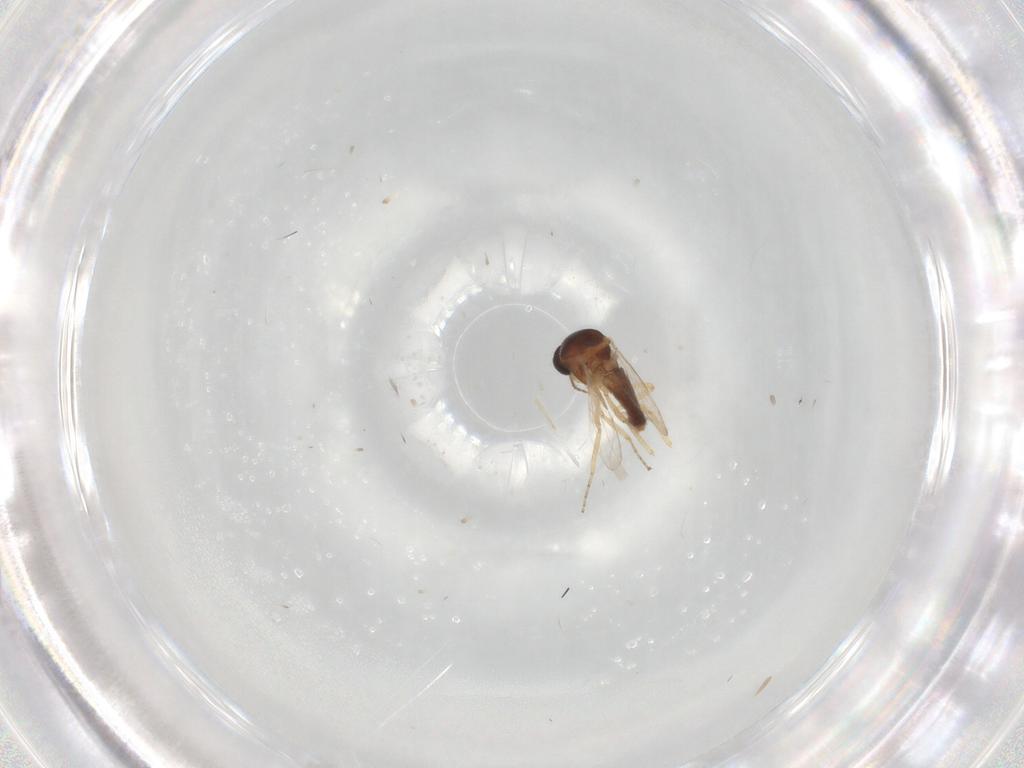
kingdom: Animalia
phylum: Arthropoda
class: Insecta
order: Diptera
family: Ceratopogonidae
